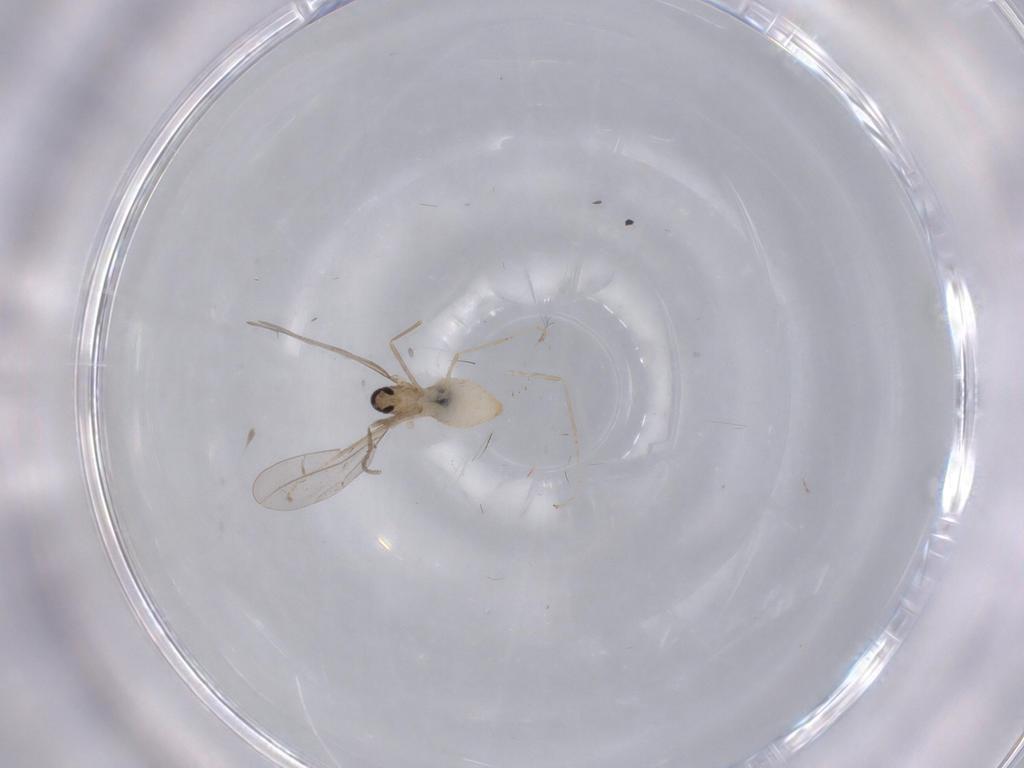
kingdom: Animalia
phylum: Arthropoda
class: Insecta
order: Diptera
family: Cecidomyiidae
